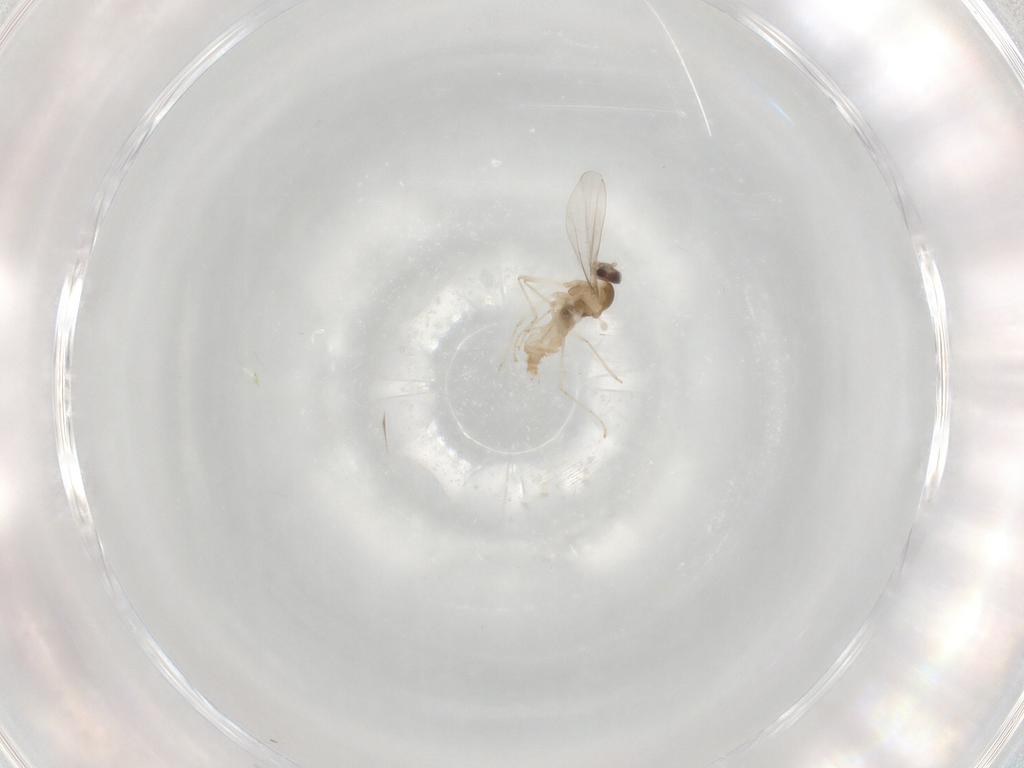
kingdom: Animalia
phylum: Arthropoda
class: Insecta
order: Diptera
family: Cecidomyiidae
